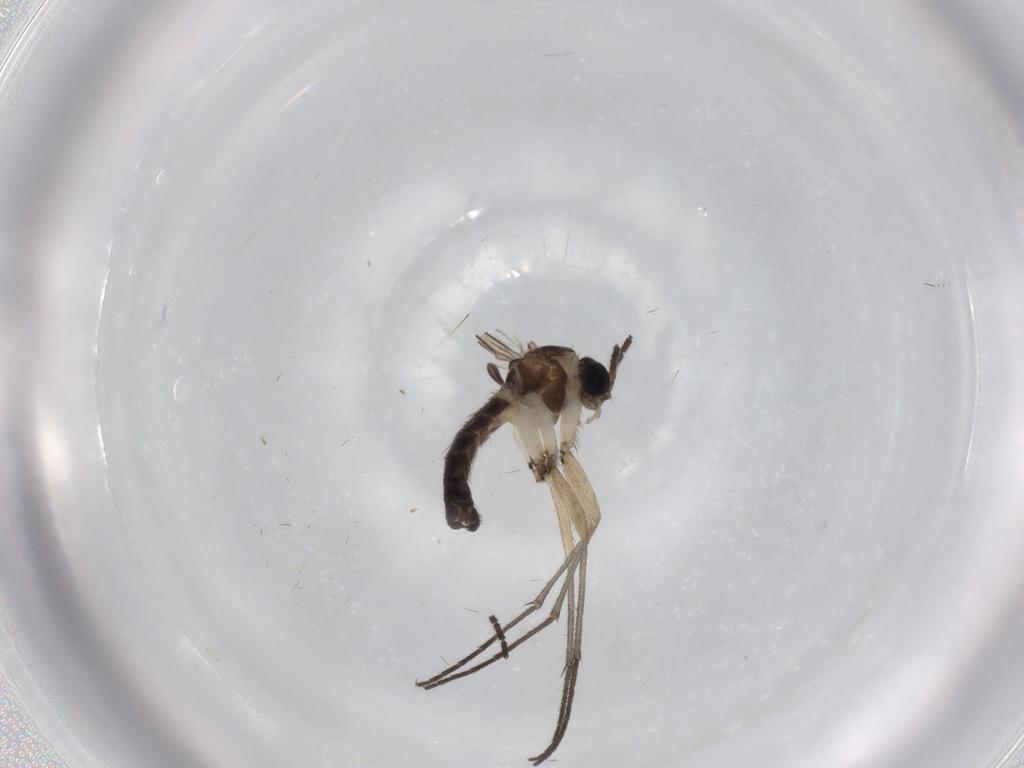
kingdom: Animalia
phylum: Arthropoda
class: Insecta
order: Diptera
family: Sciaridae
